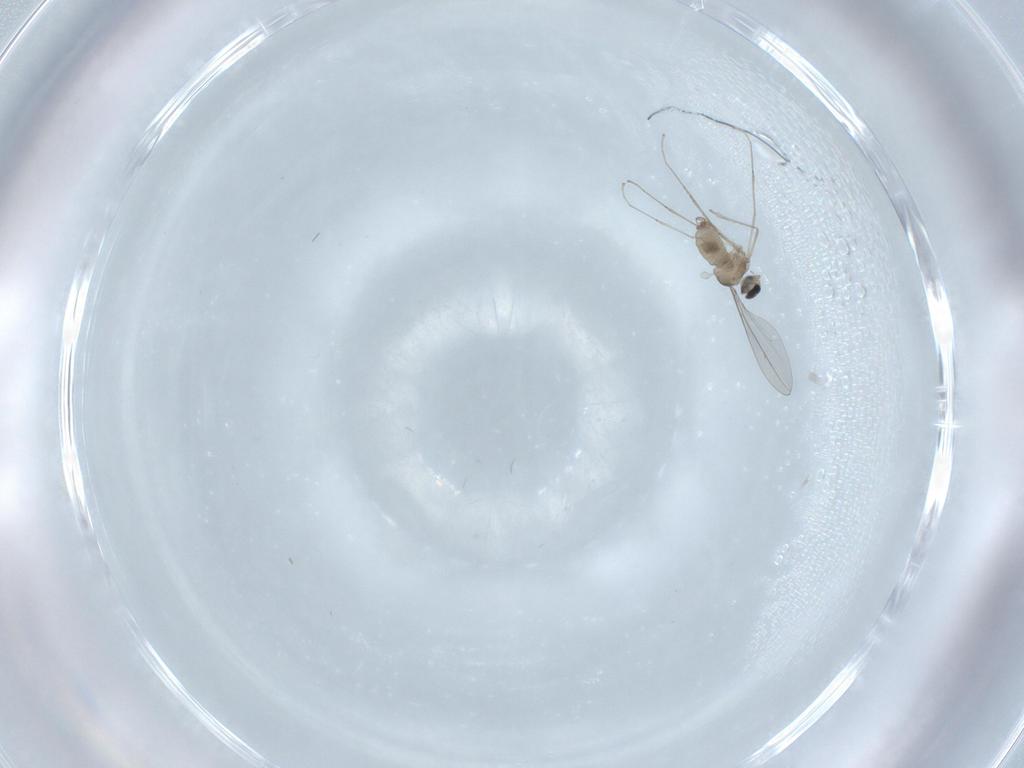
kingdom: Animalia
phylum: Arthropoda
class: Insecta
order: Diptera
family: Cecidomyiidae
